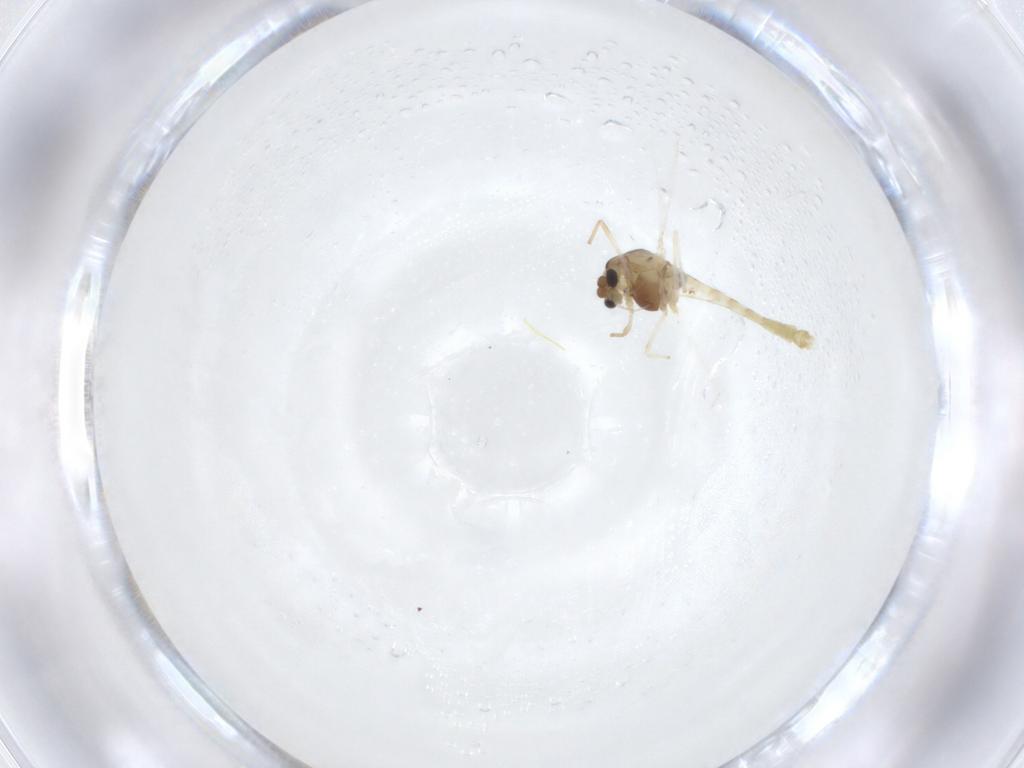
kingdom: Animalia
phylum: Arthropoda
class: Insecta
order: Diptera
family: Chironomidae
